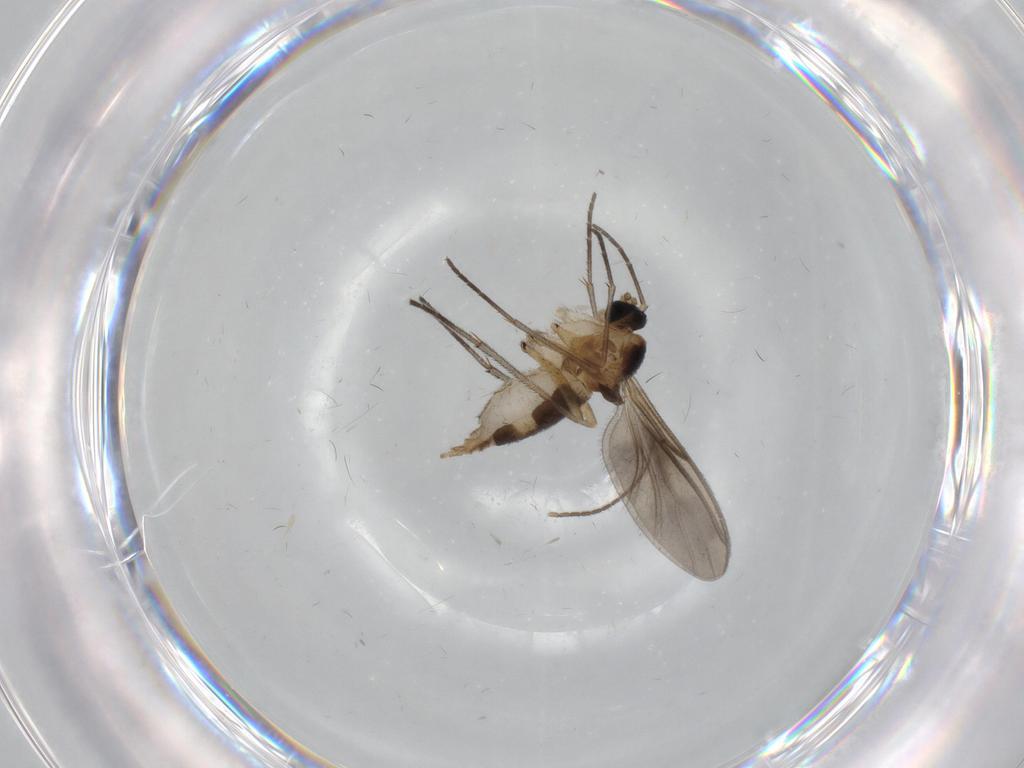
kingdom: Animalia
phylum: Arthropoda
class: Insecta
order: Diptera
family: Sciaridae
